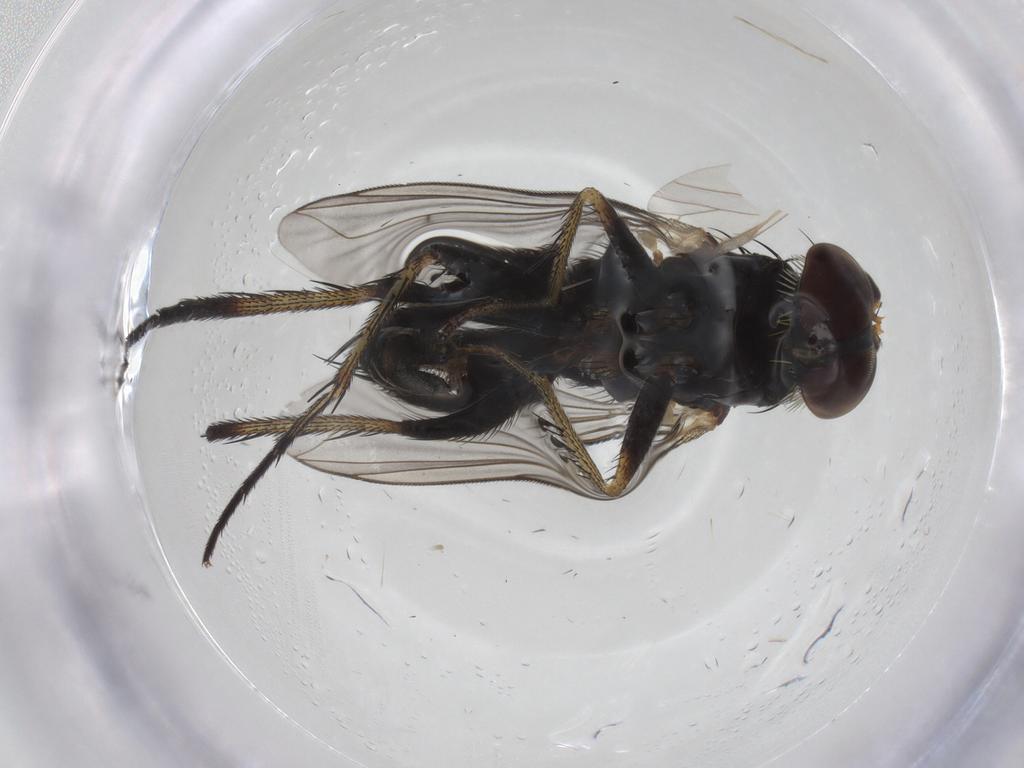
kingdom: Animalia
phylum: Arthropoda
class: Insecta
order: Diptera
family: Dolichopodidae
